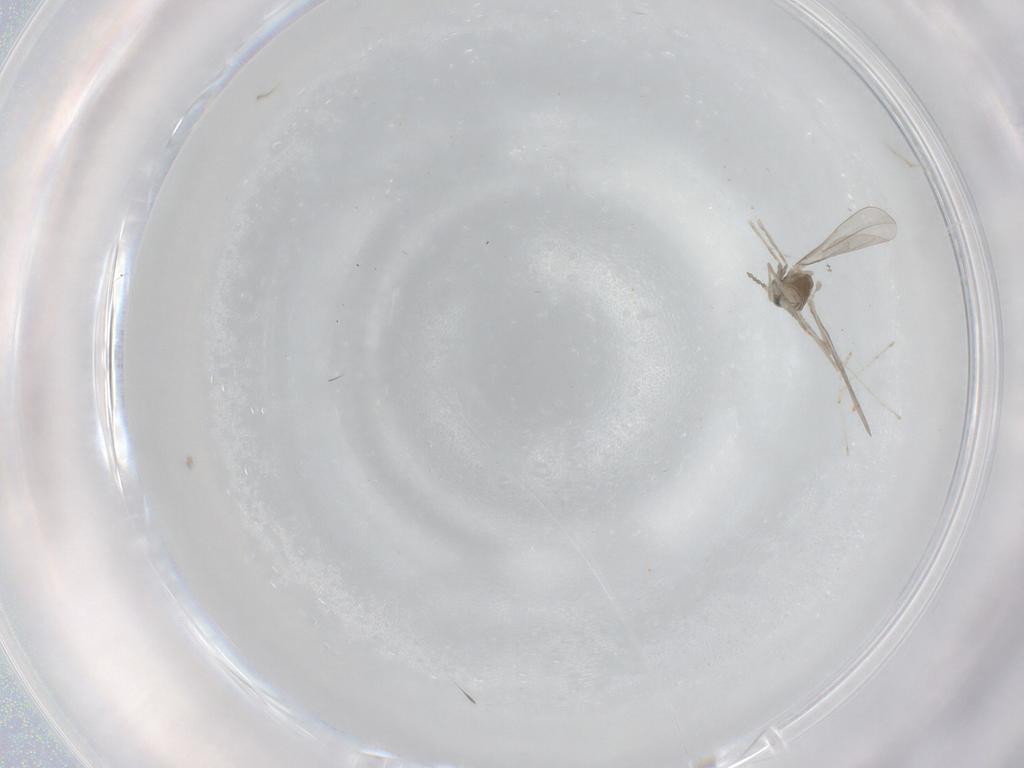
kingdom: Animalia
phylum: Arthropoda
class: Insecta
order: Diptera
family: Cecidomyiidae
